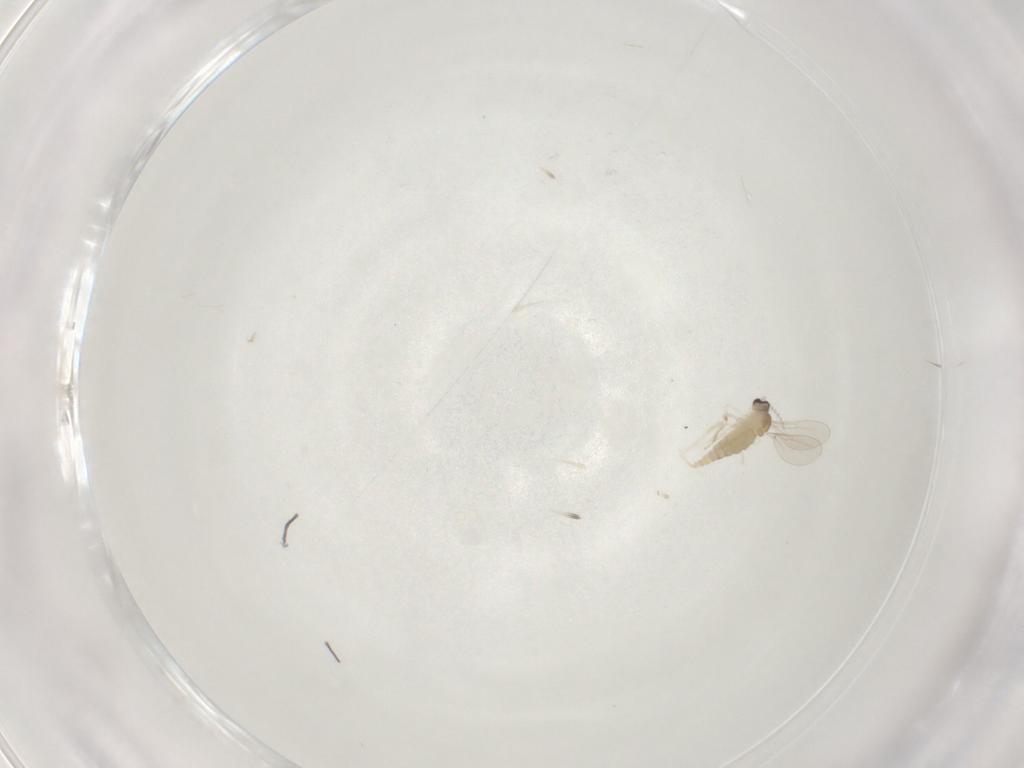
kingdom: Animalia
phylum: Arthropoda
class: Insecta
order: Diptera
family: Cecidomyiidae
